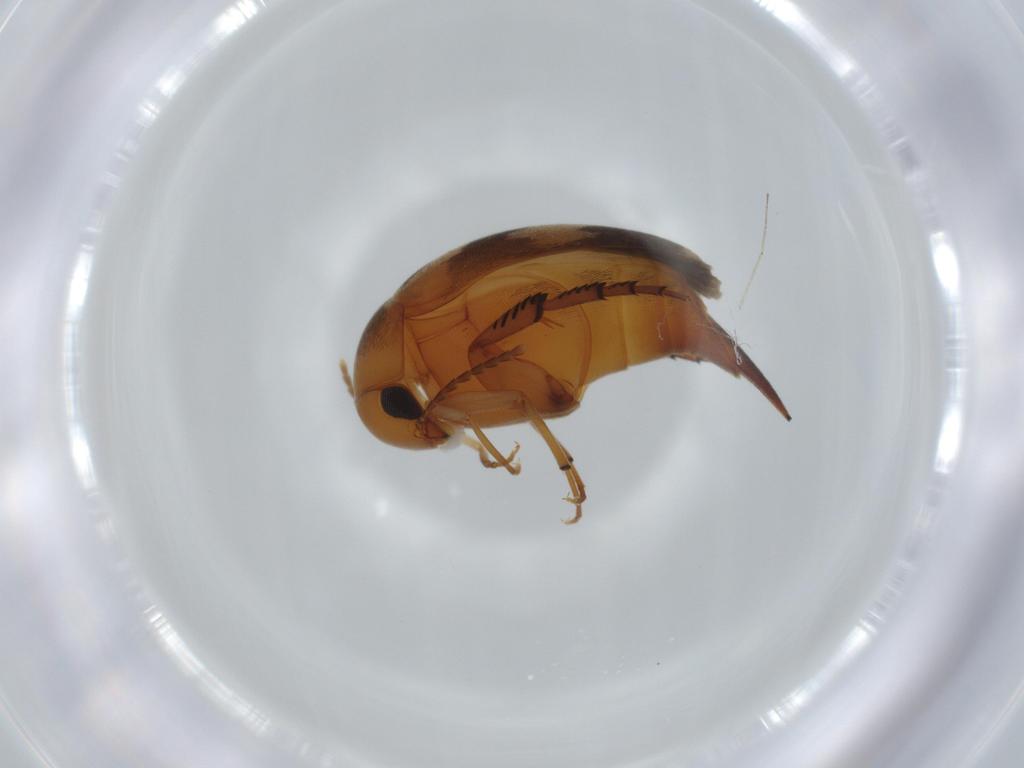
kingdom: Animalia
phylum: Arthropoda
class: Insecta
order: Coleoptera
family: Mordellidae
